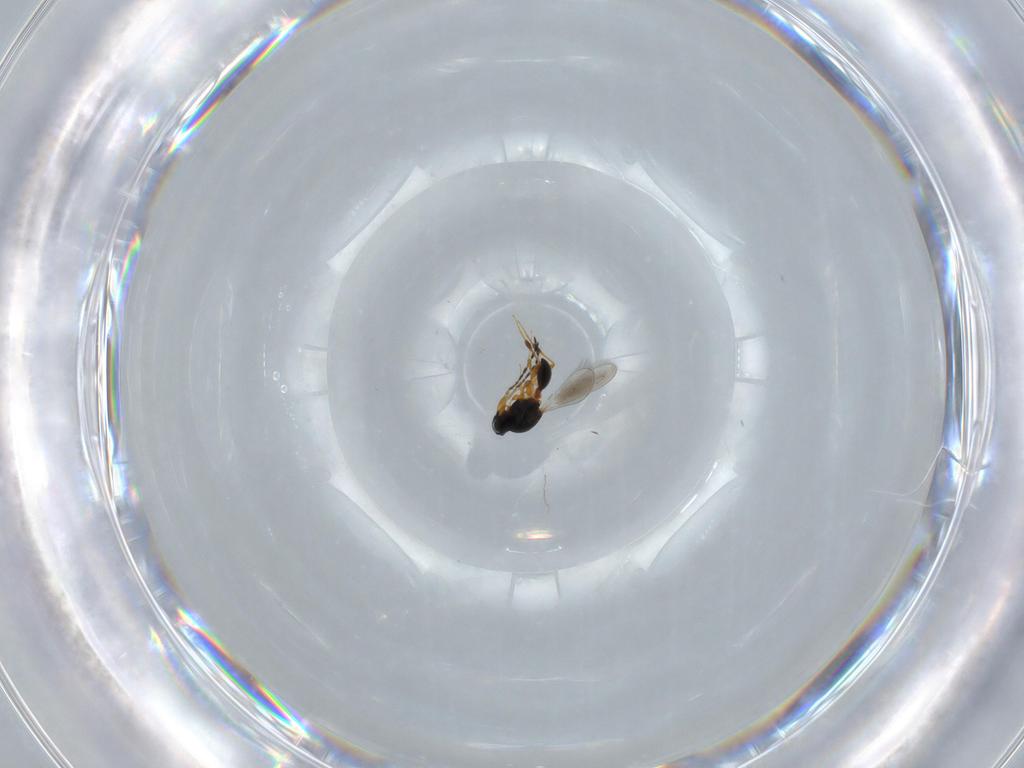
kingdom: Animalia
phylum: Arthropoda
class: Insecta
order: Hymenoptera
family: Platygastridae
